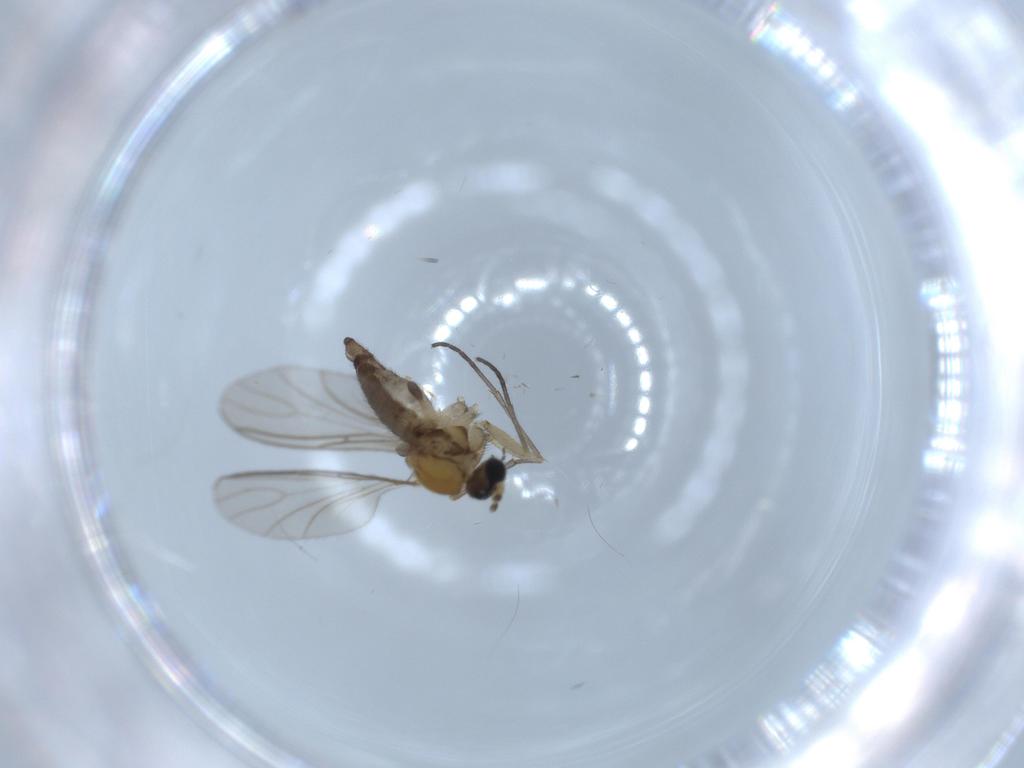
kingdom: Animalia
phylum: Arthropoda
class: Insecta
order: Diptera
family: Sciaridae
